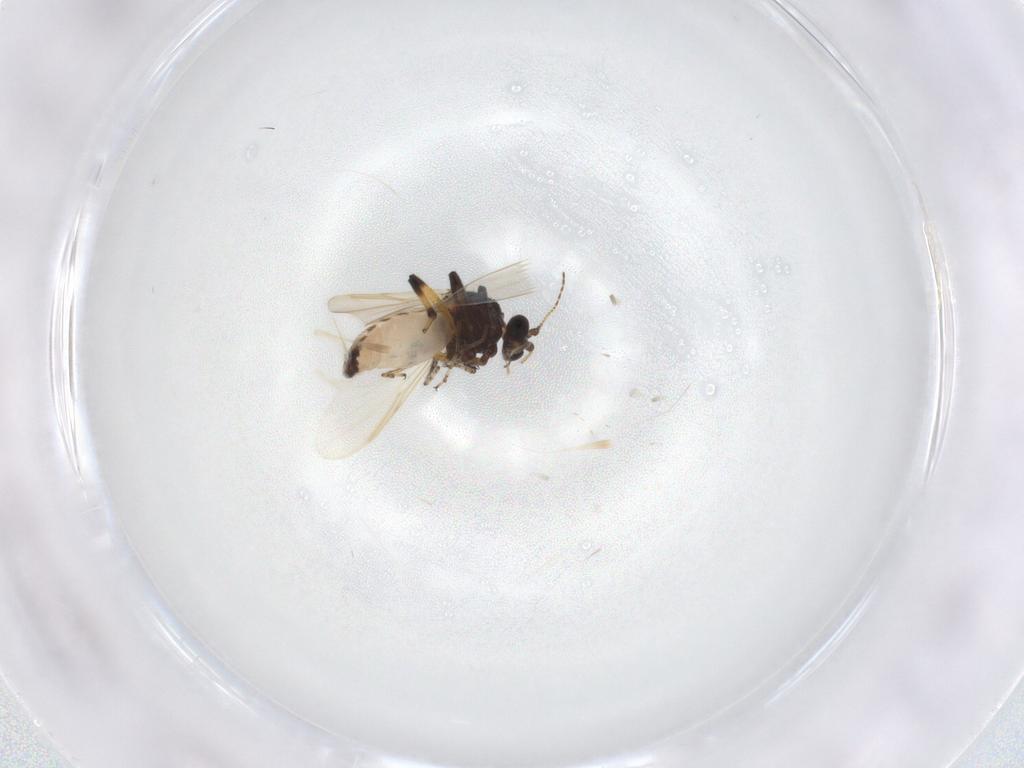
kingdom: Animalia
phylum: Arthropoda
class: Insecta
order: Diptera
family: Ceratopogonidae
